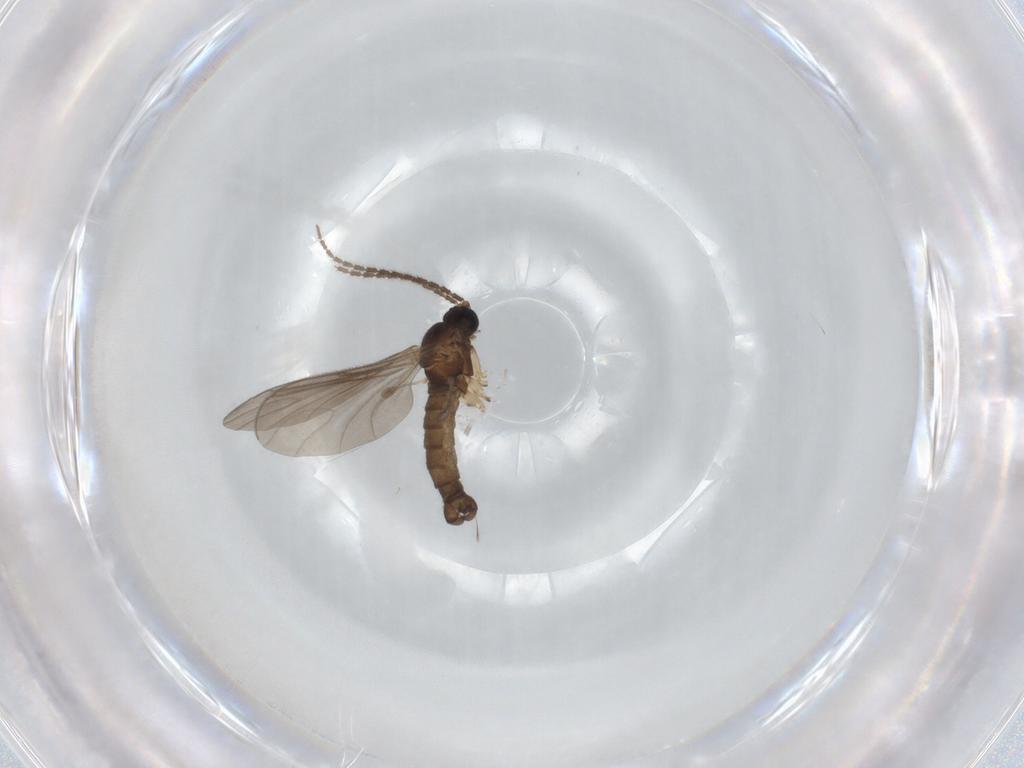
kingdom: Animalia
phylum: Arthropoda
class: Insecta
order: Diptera
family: Sciaridae
